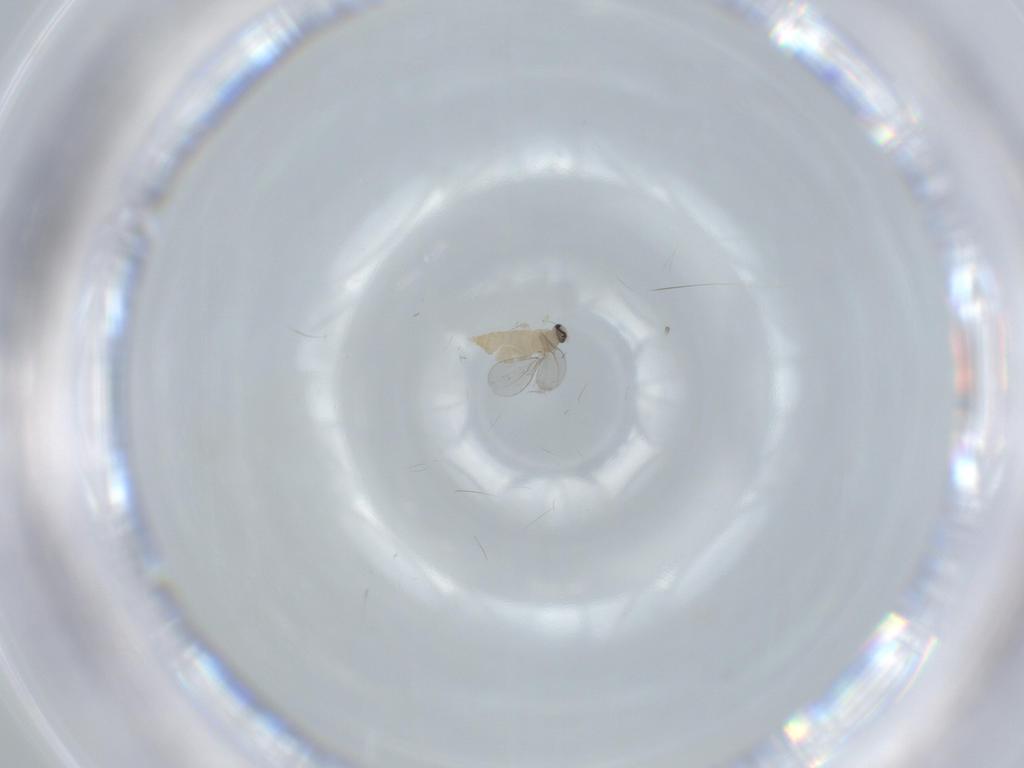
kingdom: Animalia
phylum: Arthropoda
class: Insecta
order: Diptera
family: Cecidomyiidae
